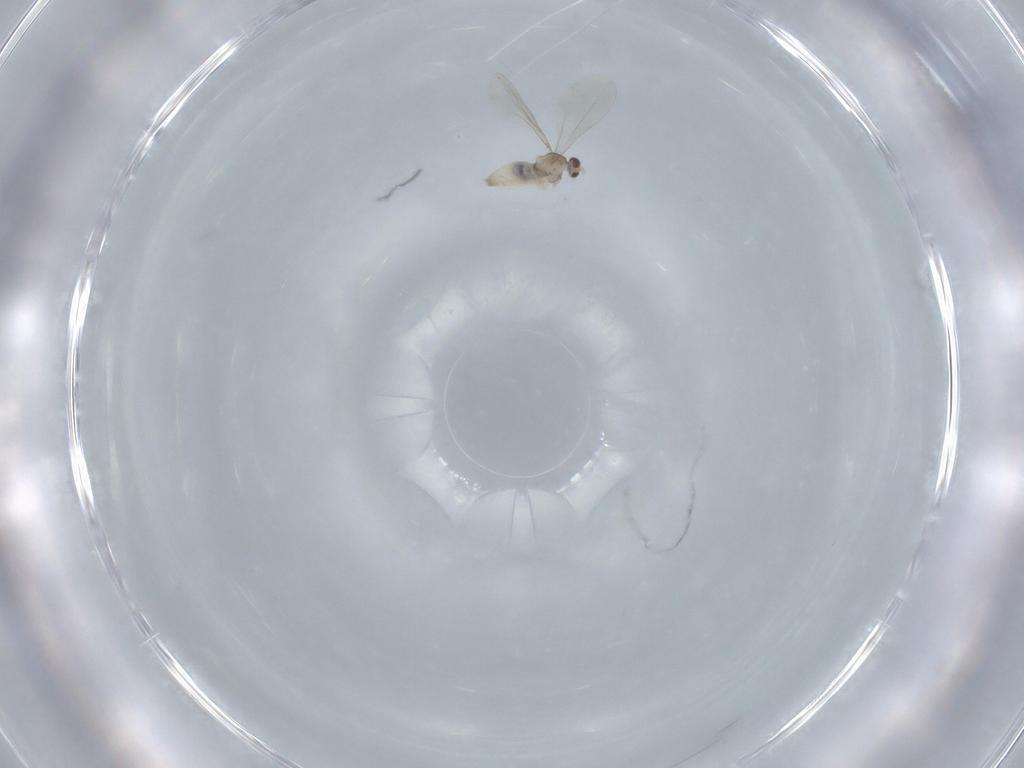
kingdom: Animalia
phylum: Arthropoda
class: Insecta
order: Diptera
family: Cecidomyiidae
